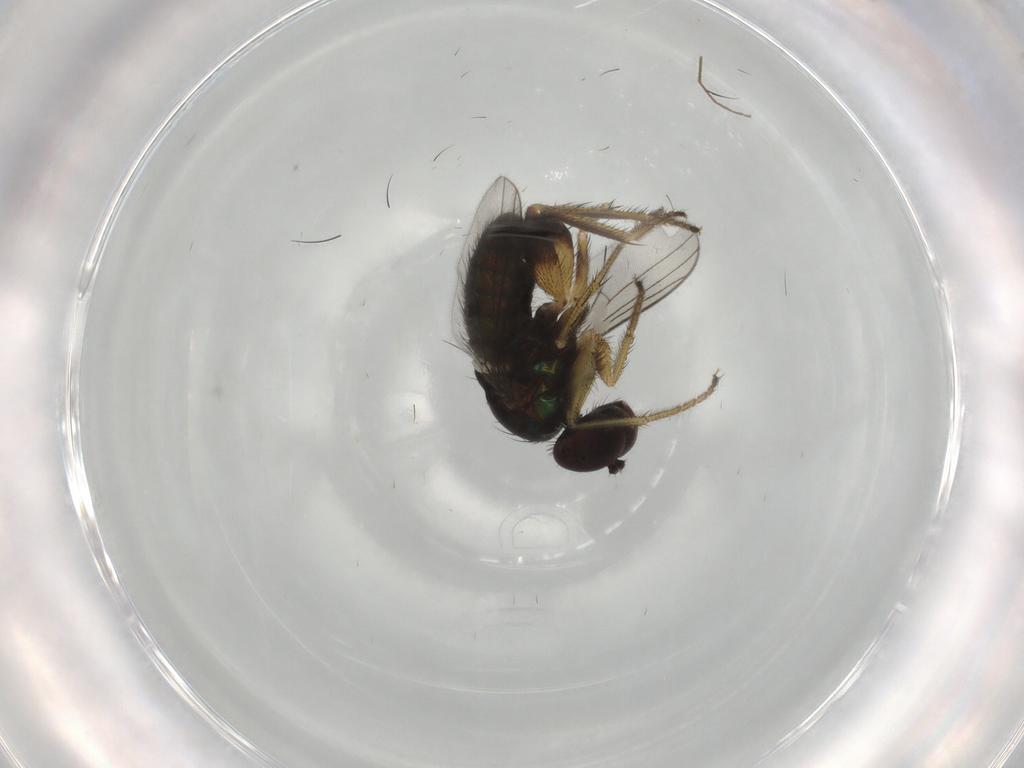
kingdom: Animalia
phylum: Arthropoda
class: Insecta
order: Diptera
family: Dolichopodidae
